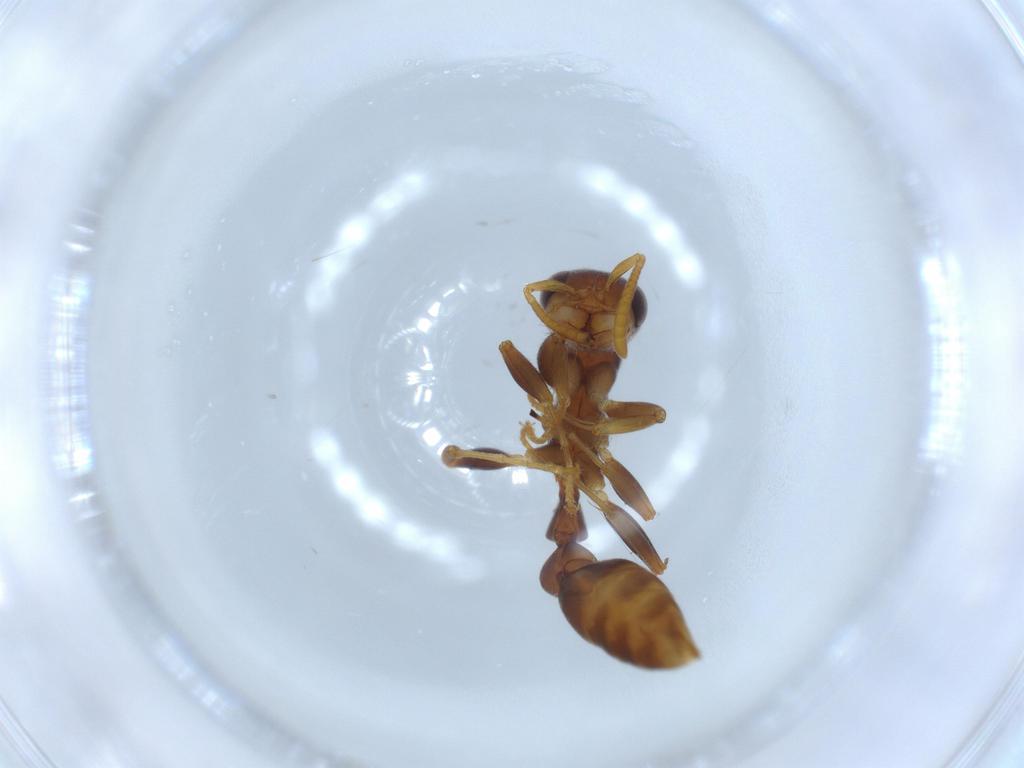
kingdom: Animalia
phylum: Arthropoda
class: Insecta
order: Hymenoptera
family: Formicidae
